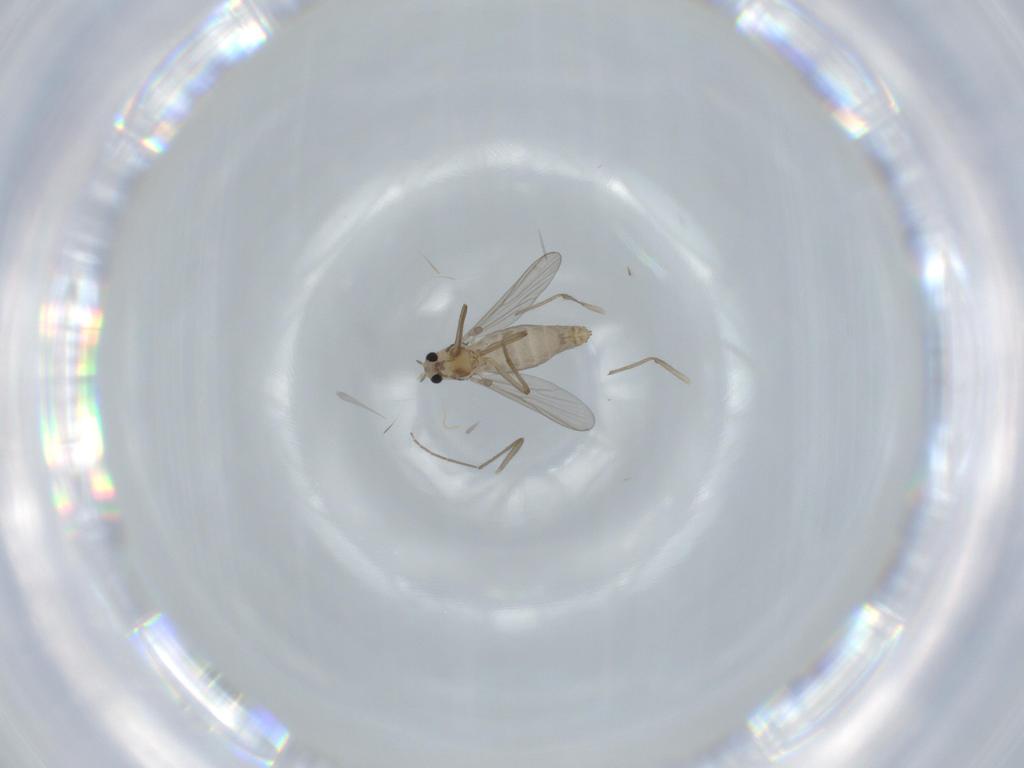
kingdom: Animalia
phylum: Arthropoda
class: Insecta
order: Diptera
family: Chironomidae
